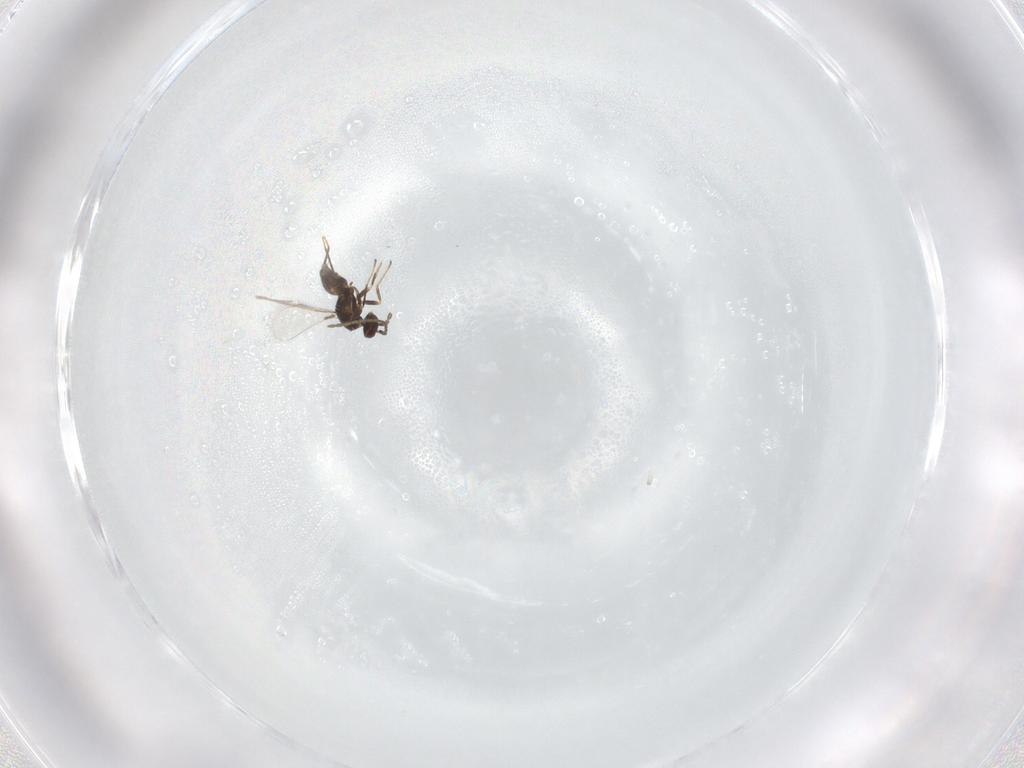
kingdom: Animalia
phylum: Arthropoda
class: Insecta
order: Hymenoptera
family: Mymaridae
